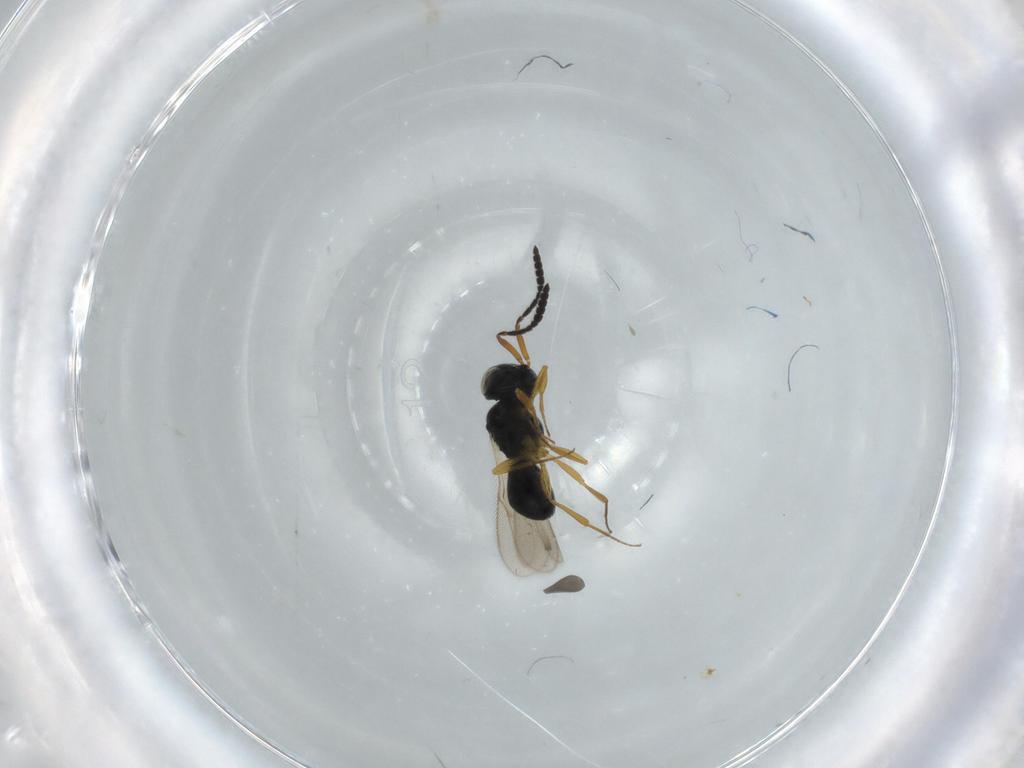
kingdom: Animalia
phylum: Arthropoda
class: Insecta
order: Hymenoptera
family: Scelionidae
